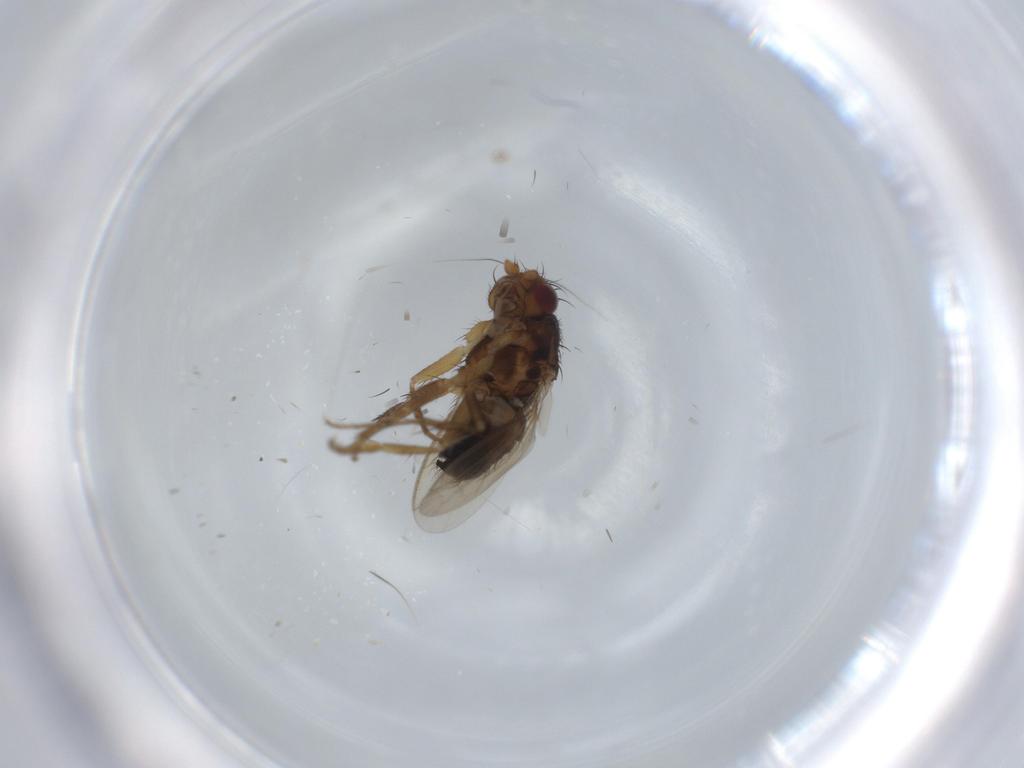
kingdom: Animalia
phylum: Arthropoda
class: Insecta
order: Diptera
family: Sphaeroceridae
